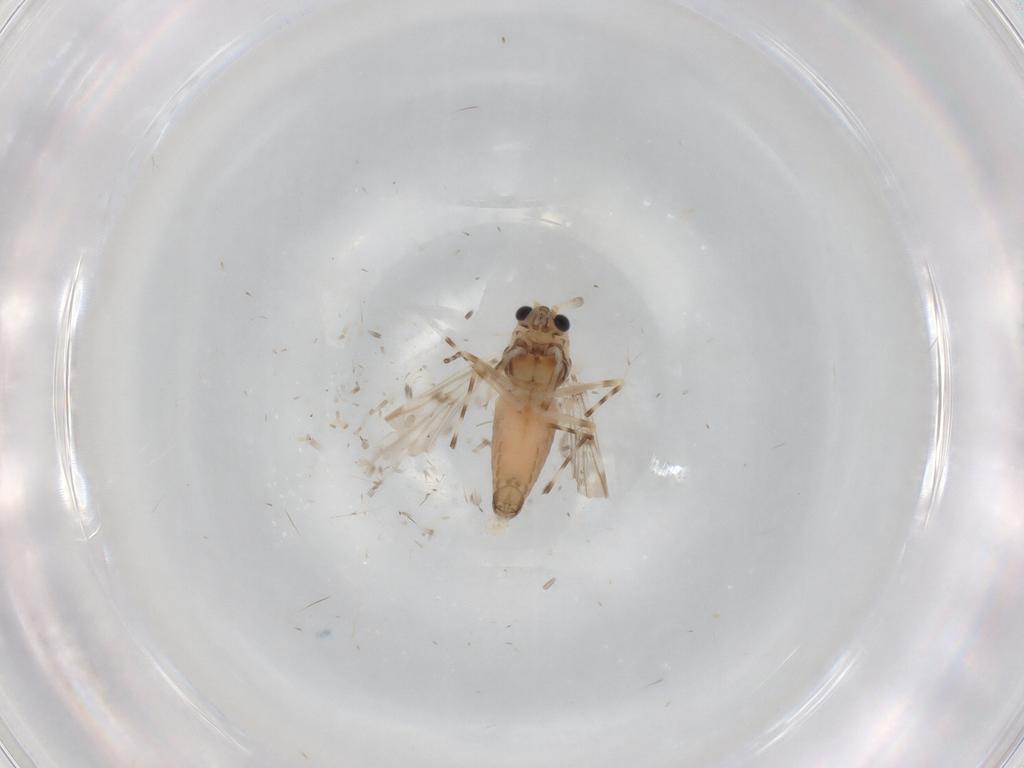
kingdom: Animalia
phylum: Arthropoda
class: Insecta
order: Diptera
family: Chironomidae
